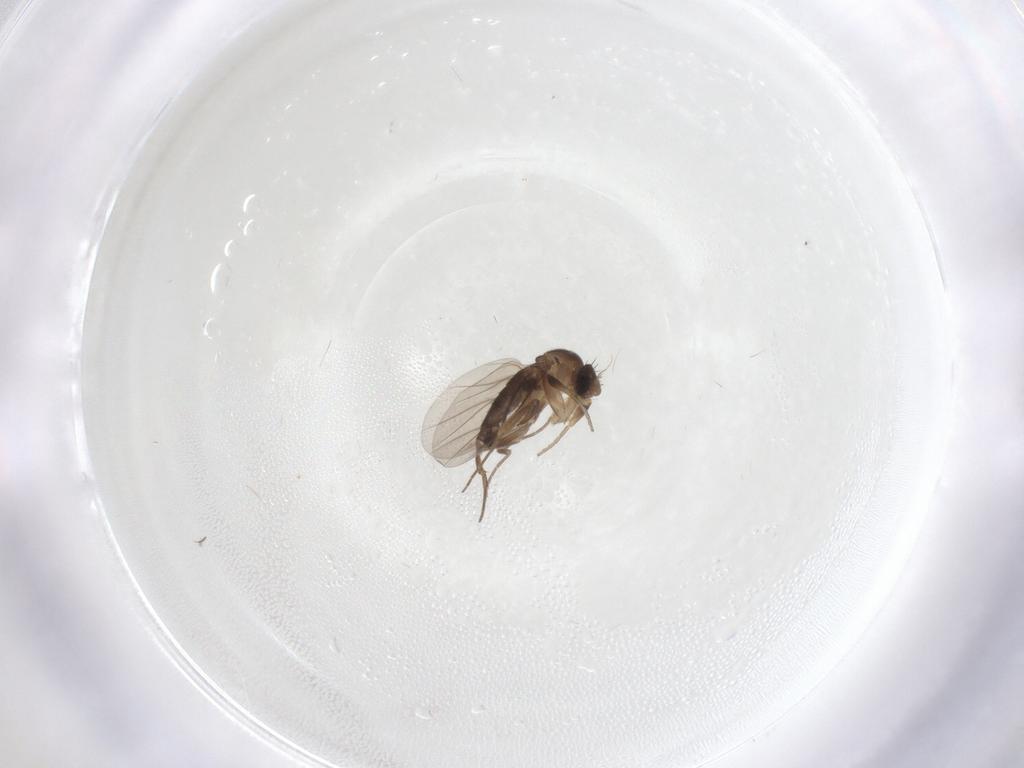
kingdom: Animalia
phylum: Arthropoda
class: Insecta
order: Diptera
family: Phoridae
